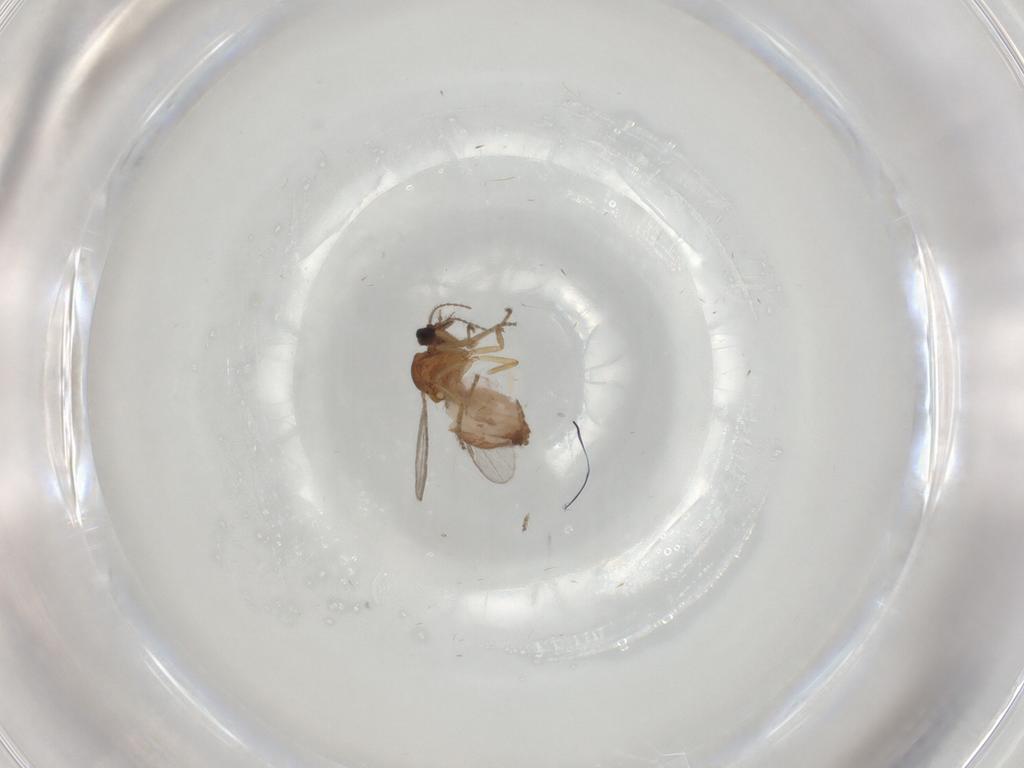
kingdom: Animalia
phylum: Arthropoda
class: Insecta
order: Diptera
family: Ceratopogonidae
